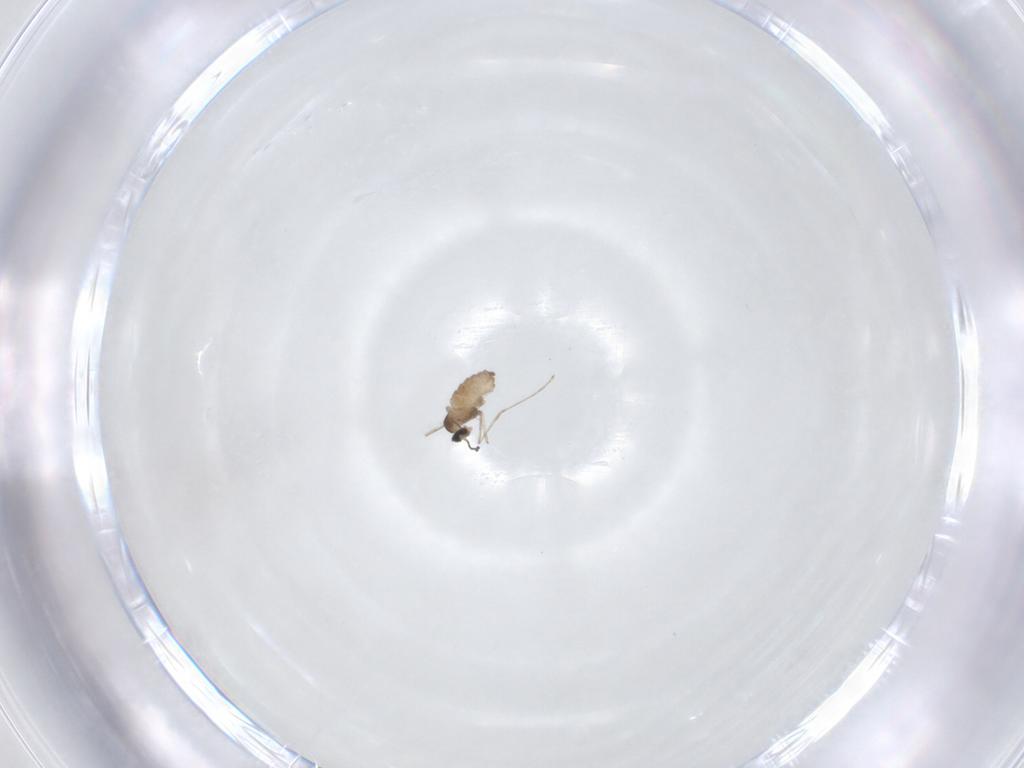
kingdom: Animalia
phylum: Arthropoda
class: Insecta
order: Diptera
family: Cecidomyiidae
